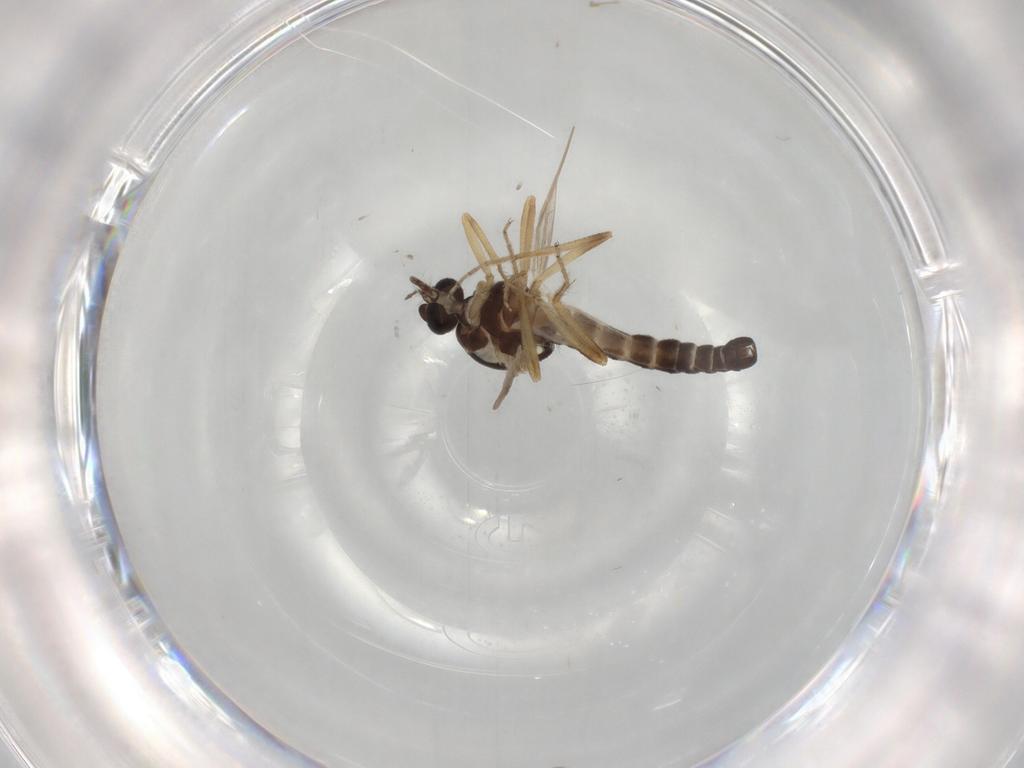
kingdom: Animalia
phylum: Arthropoda
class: Insecta
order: Diptera
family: Ceratopogonidae
